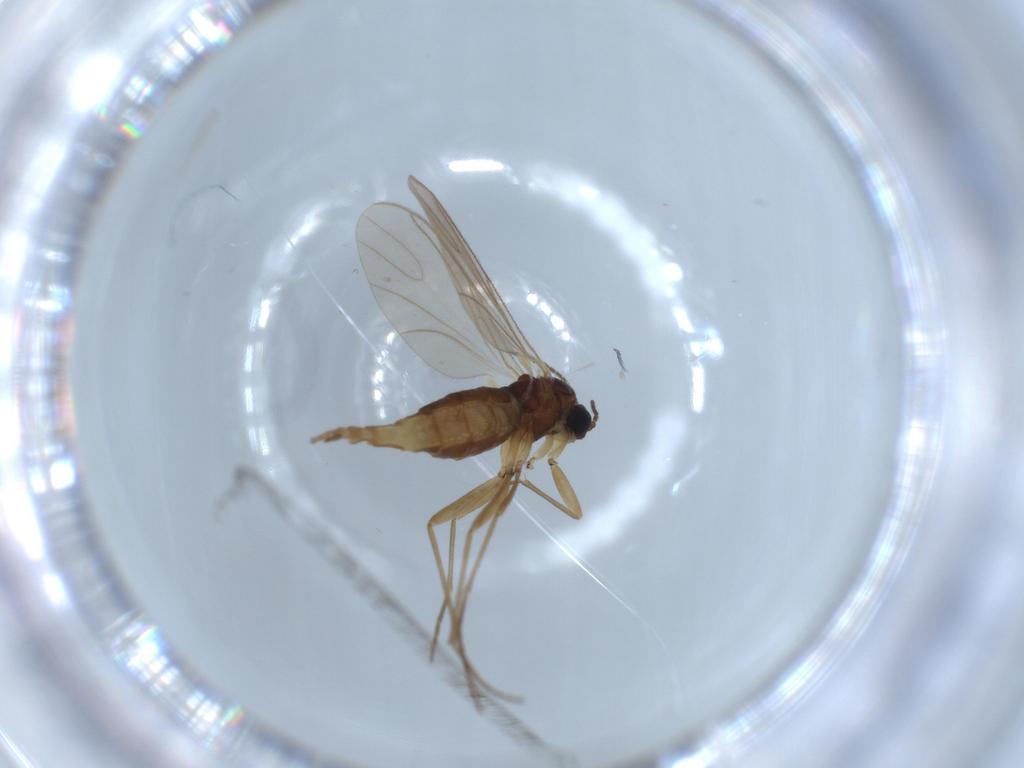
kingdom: Animalia
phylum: Arthropoda
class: Insecta
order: Diptera
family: Sciaridae
